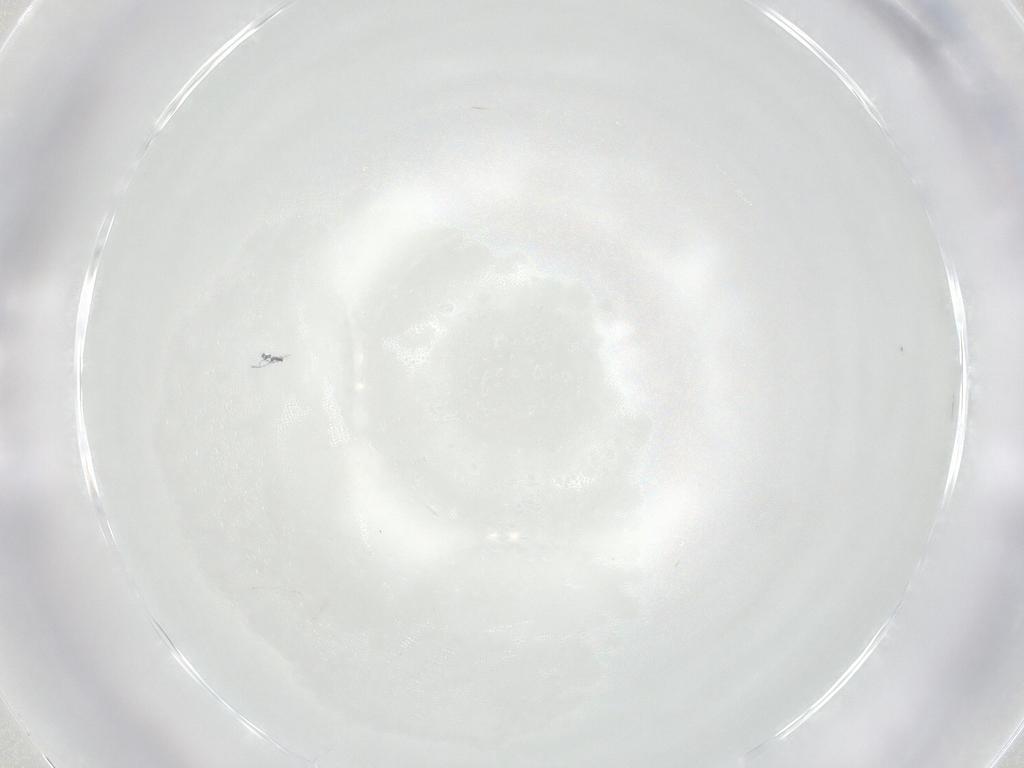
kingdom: Animalia
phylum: Arthropoda
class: Insecta
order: Diptera
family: Cecidomyiidae
